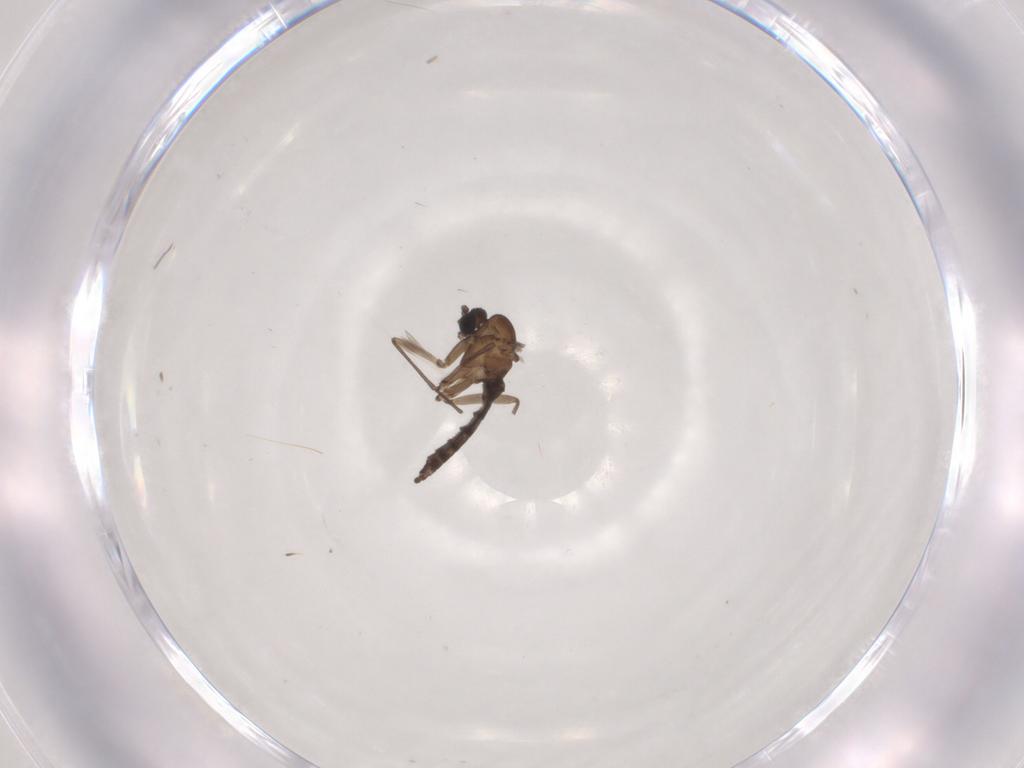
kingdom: Animalia
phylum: Arthropoda
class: Insecta
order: Diptera
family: Sciaridae
